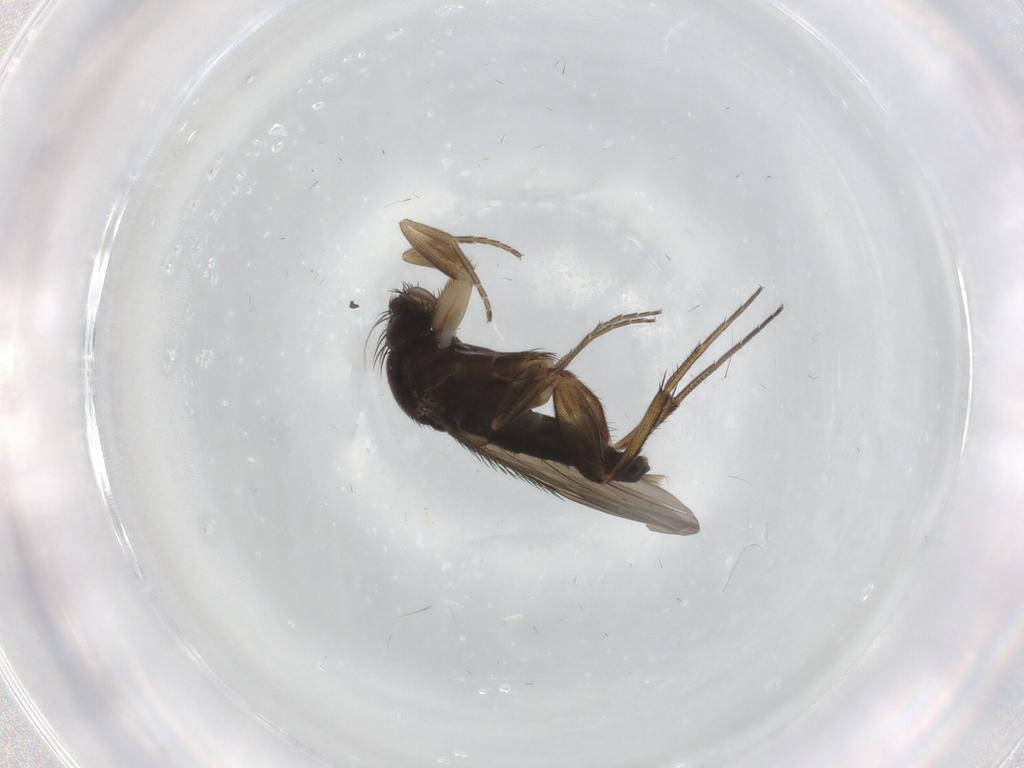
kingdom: Animalia
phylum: Arthropoda
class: Insecta
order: Diptera
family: Phoridae
